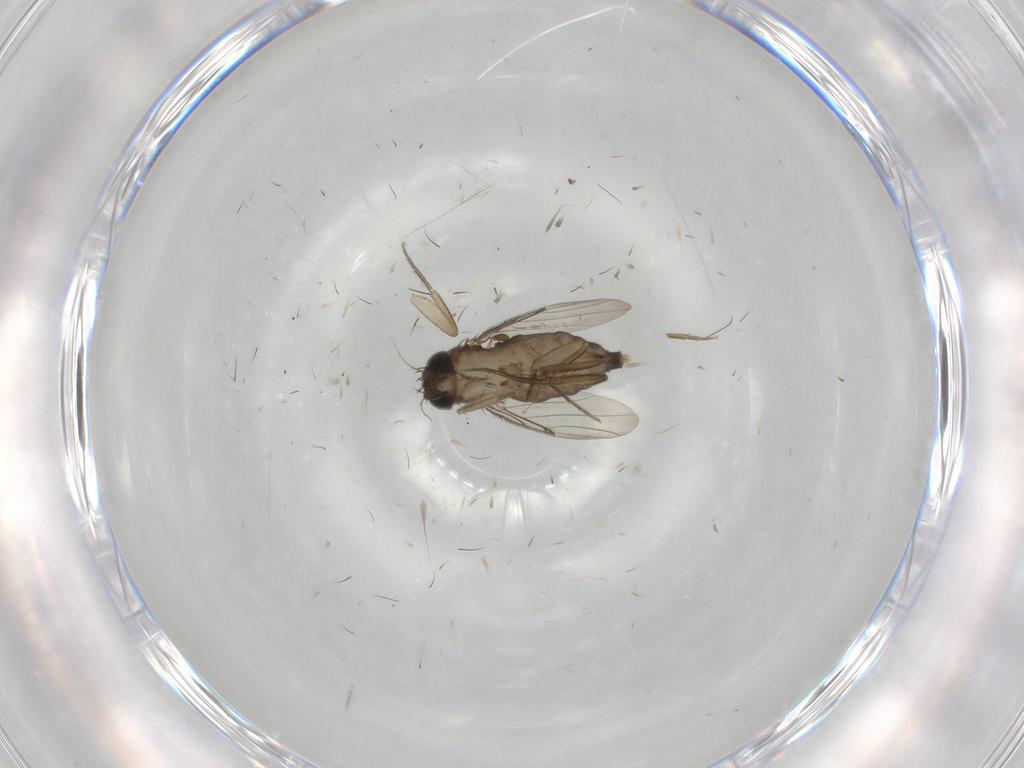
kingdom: Animalia
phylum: Arthropoda
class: Insecta
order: Diptera
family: Phoridae
